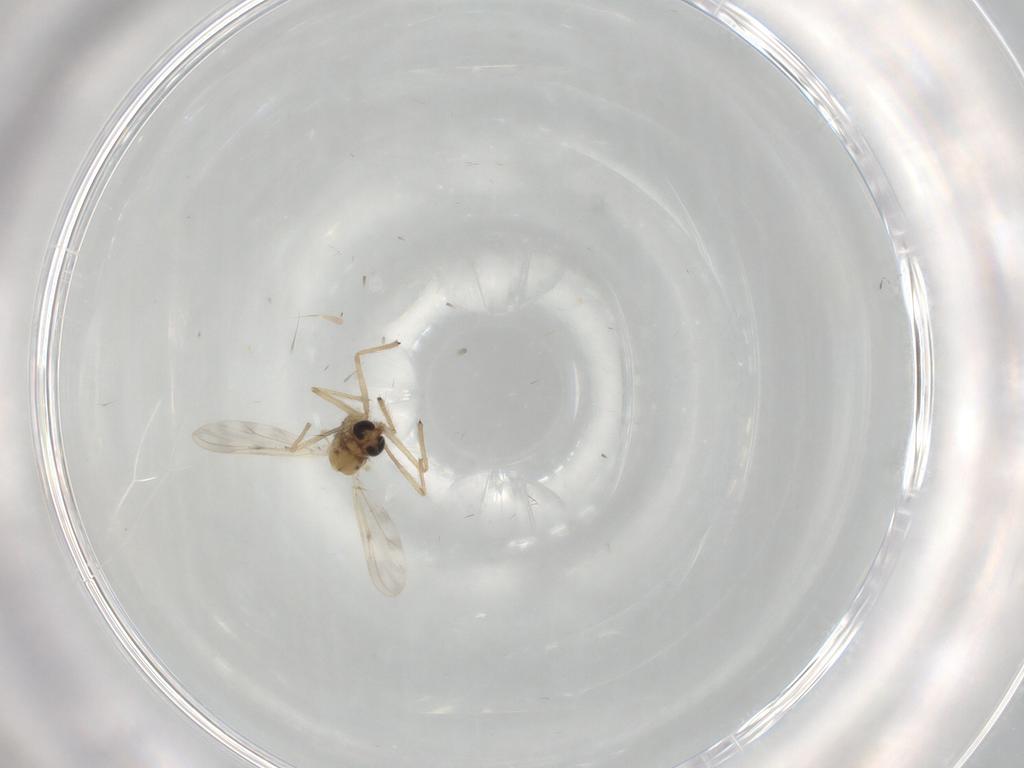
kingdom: Animalia
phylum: Arthropoda
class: Insecta
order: Diptera
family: Chironomidae
